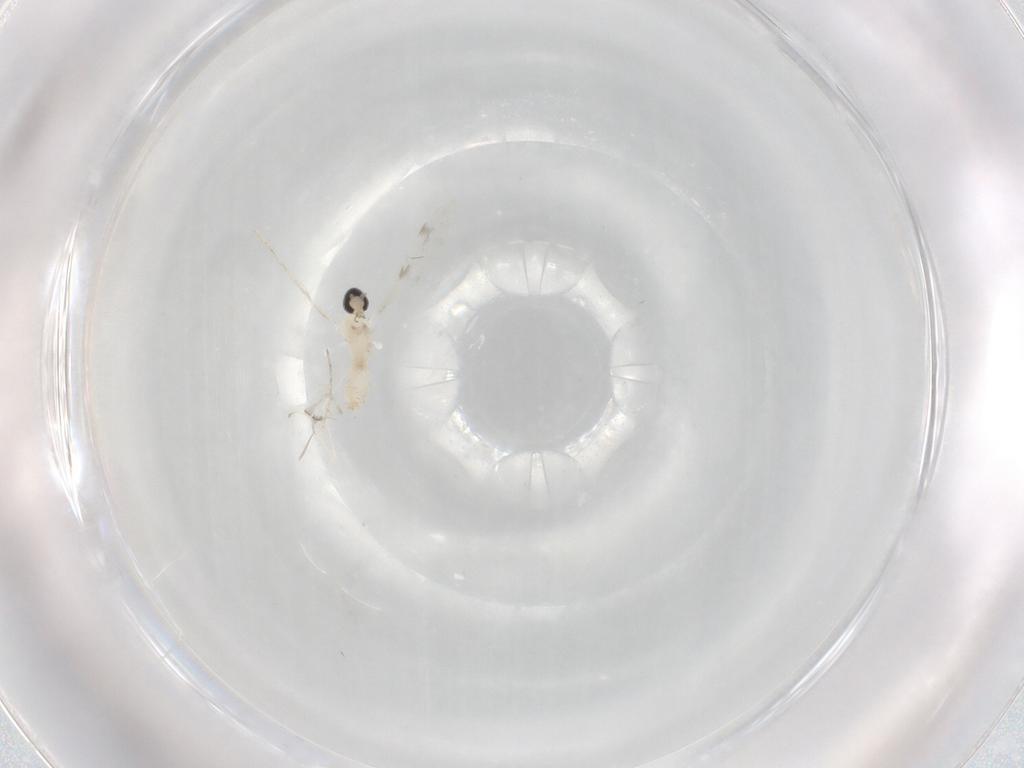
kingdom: Animalia
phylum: Arthropoda
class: Insecta
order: Diptera
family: Cecidomyiidae
